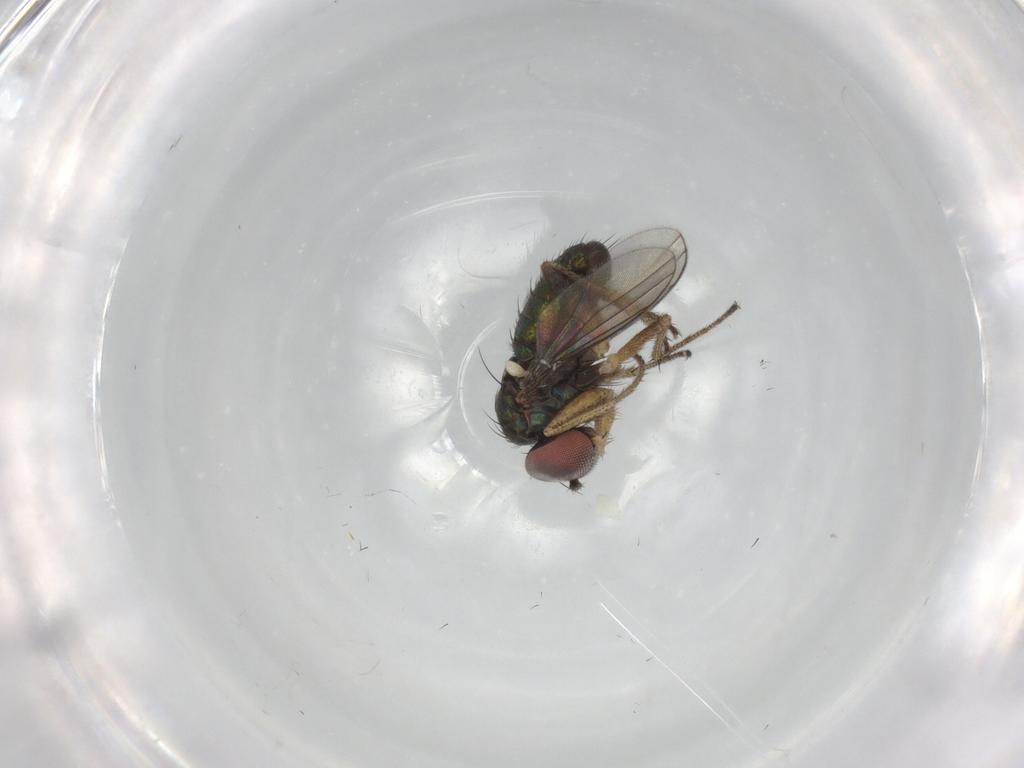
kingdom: Animalia
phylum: Arthropoda
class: Insecta
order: Diptera
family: Dolichopodidae
